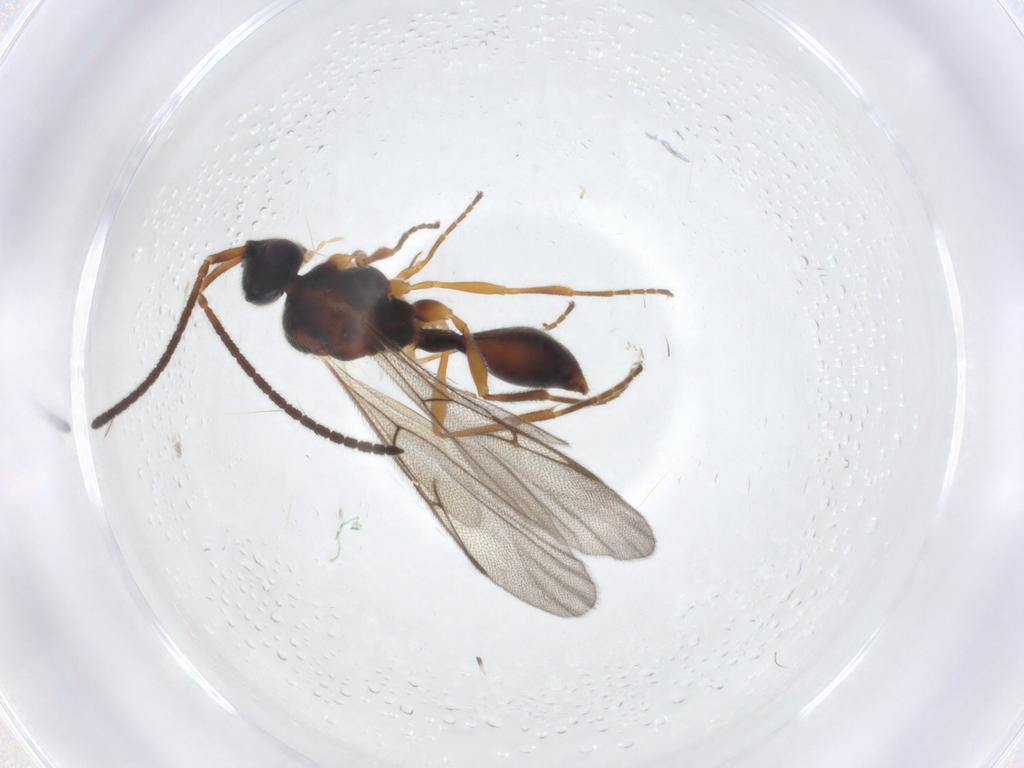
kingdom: Animalia
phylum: Arthropoda
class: Insecta
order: Hymenoptera
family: Diapriidae
